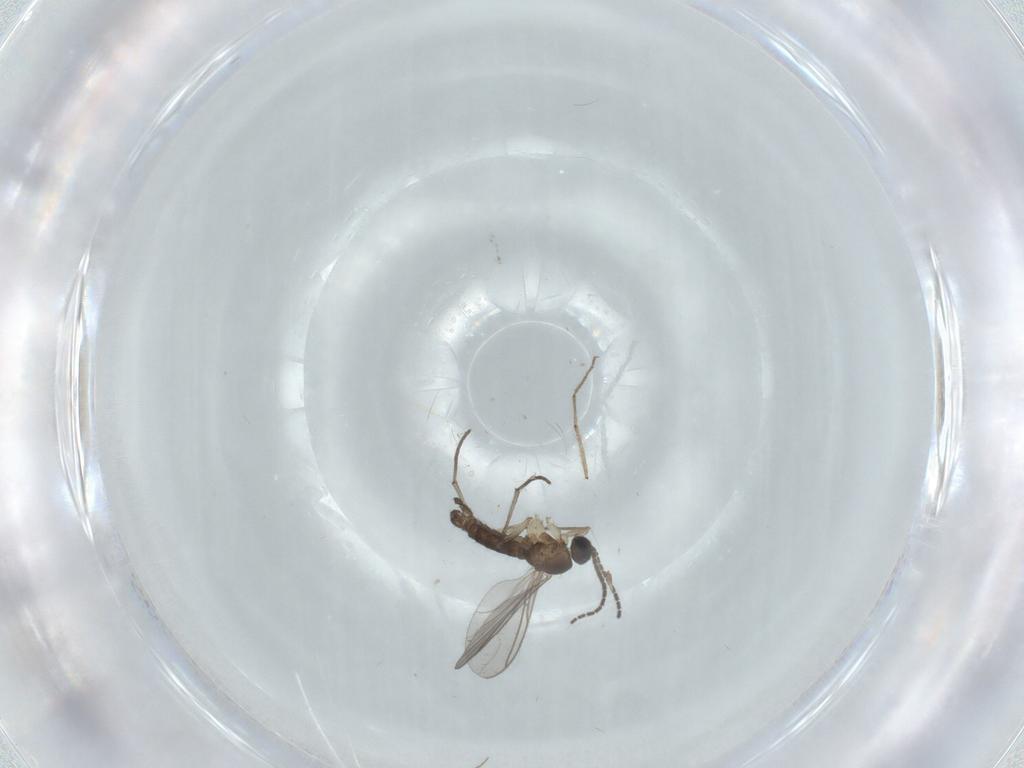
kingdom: Animalia
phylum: Arthropoda
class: Insecta
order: Diptera
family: Sciaridae
